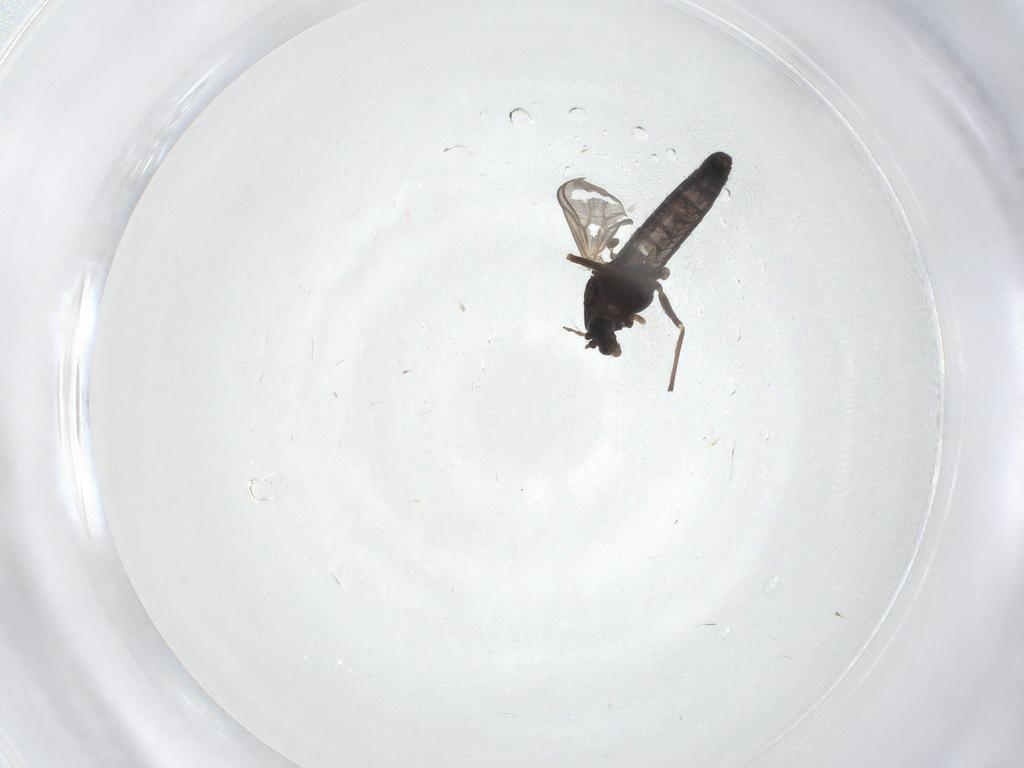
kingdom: Animalia
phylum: Arthropoda
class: Insecta
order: Diptera
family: Chironomidae
